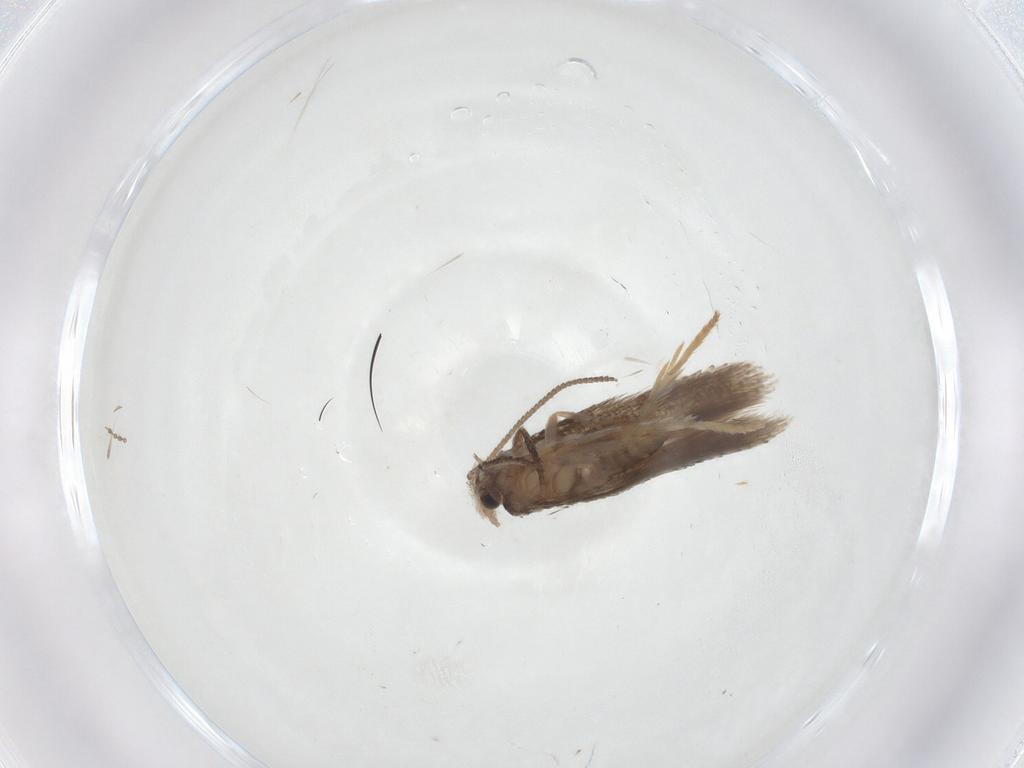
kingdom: Animalia
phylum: Arthropoda
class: Insecta
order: Lepidoptera
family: Nepticulidae
